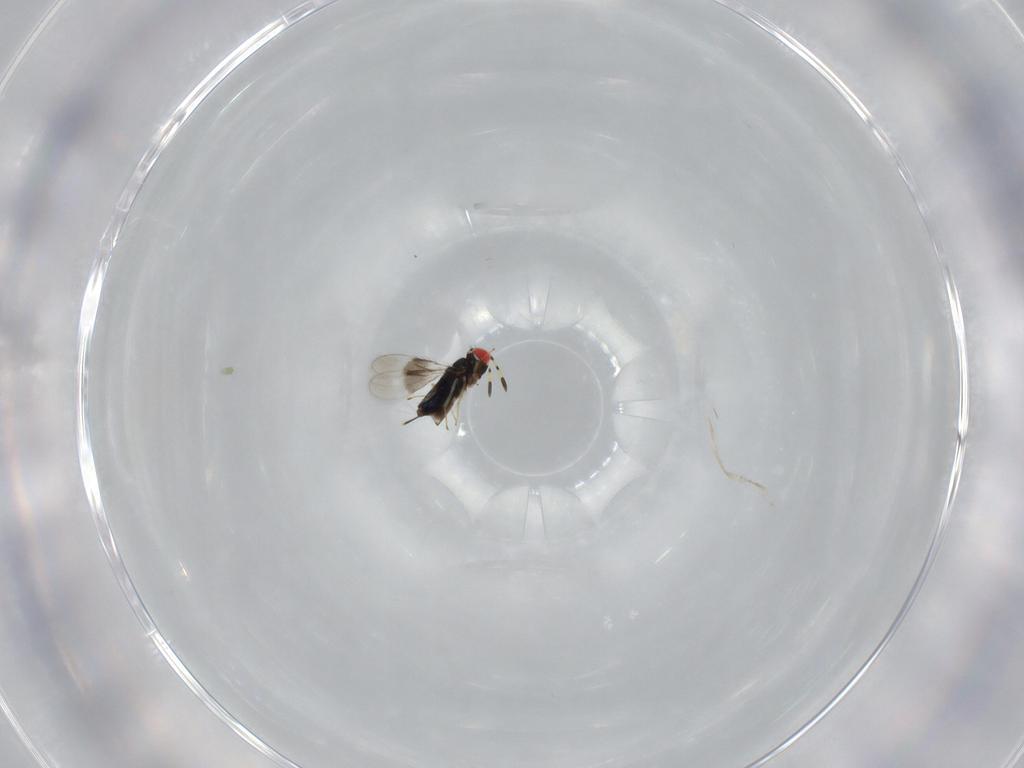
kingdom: Animalia
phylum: Arthropoda
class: Insecta
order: Hymenoptera
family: Azotidae
